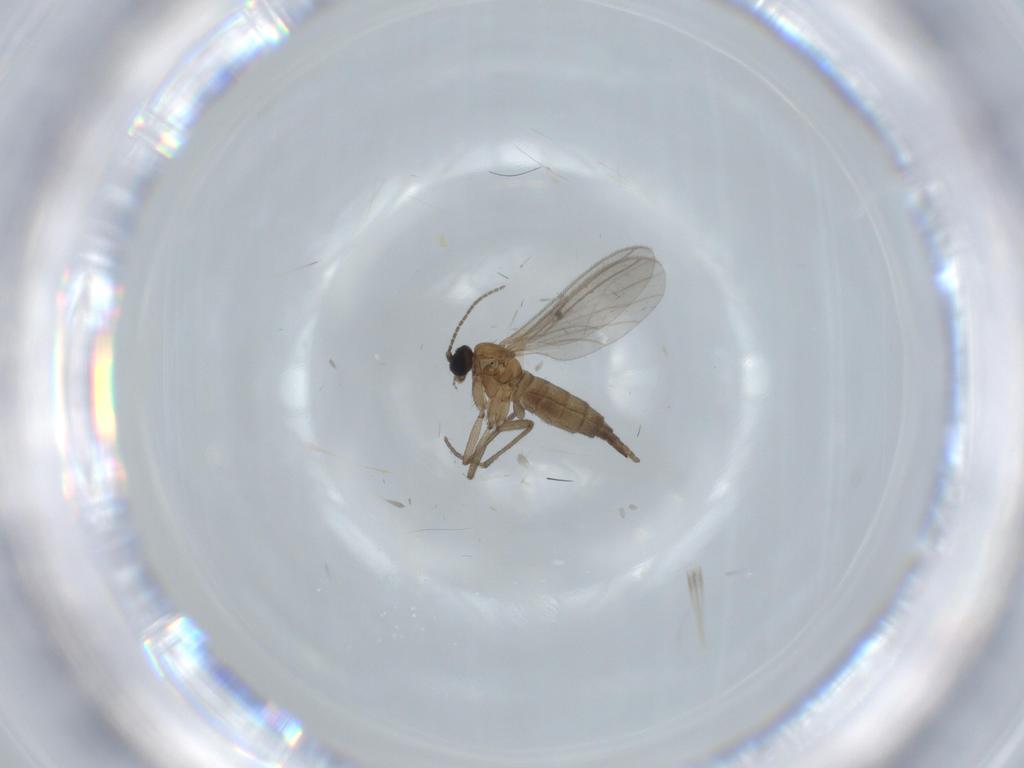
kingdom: Animalia
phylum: Arthropoda
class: Insecta
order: Diptera
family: Sciaridae
